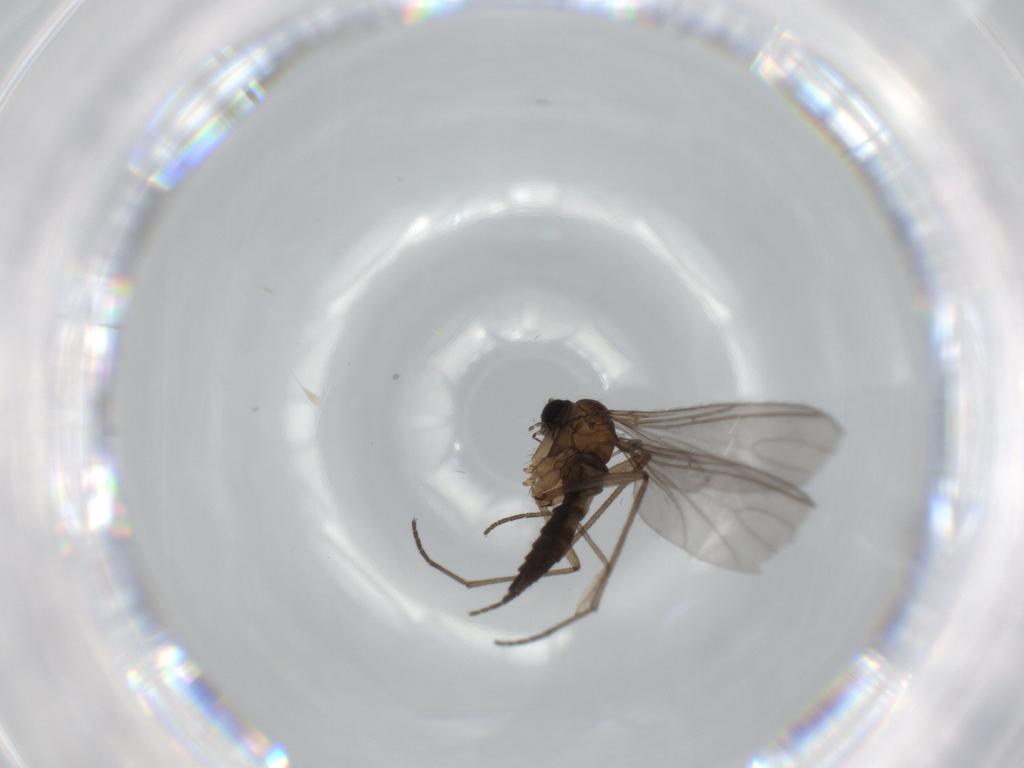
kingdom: Animalia
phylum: Arthropoda
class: Insecta
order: Diptera
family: Sciaridae
